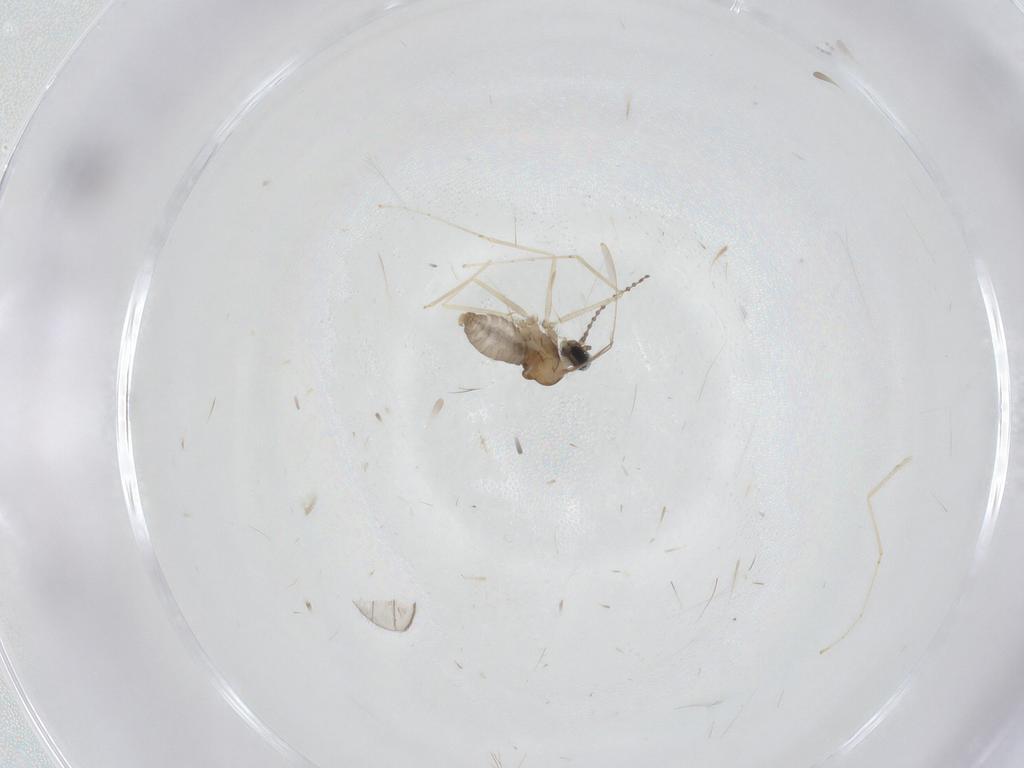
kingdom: Animalia
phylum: Arthropoda
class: Insecta
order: Diptera
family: Cecidomyiidae
